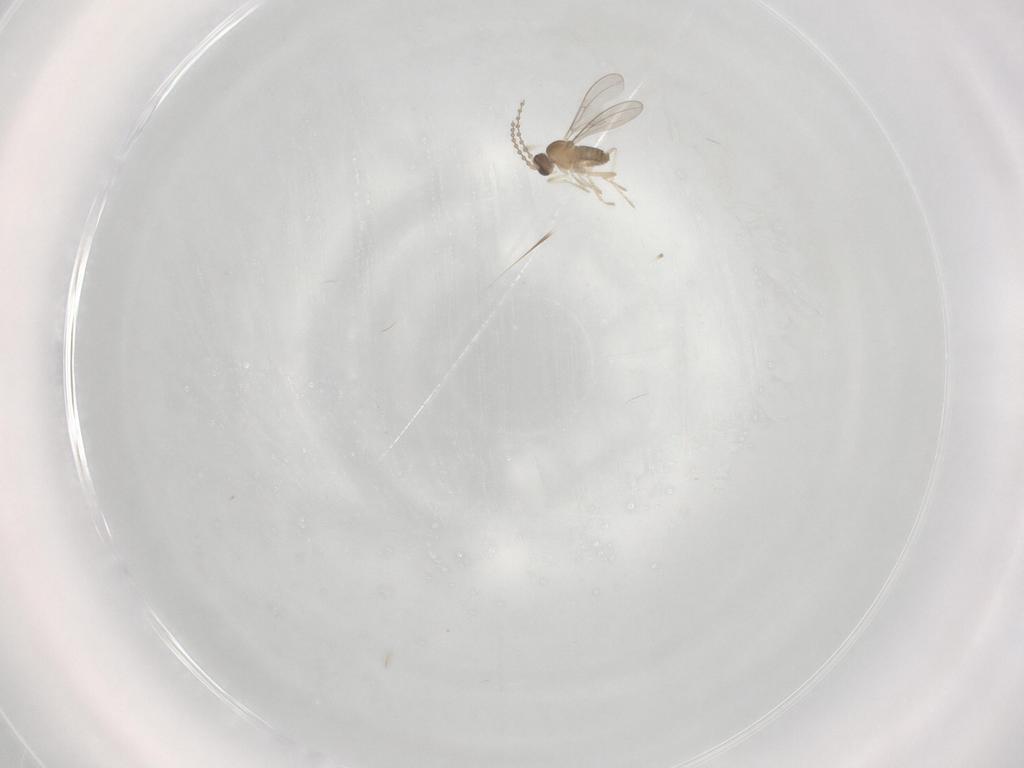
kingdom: Animalia
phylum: Arthropoda
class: Insecta
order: Diptera
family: Cecidomyiidae
